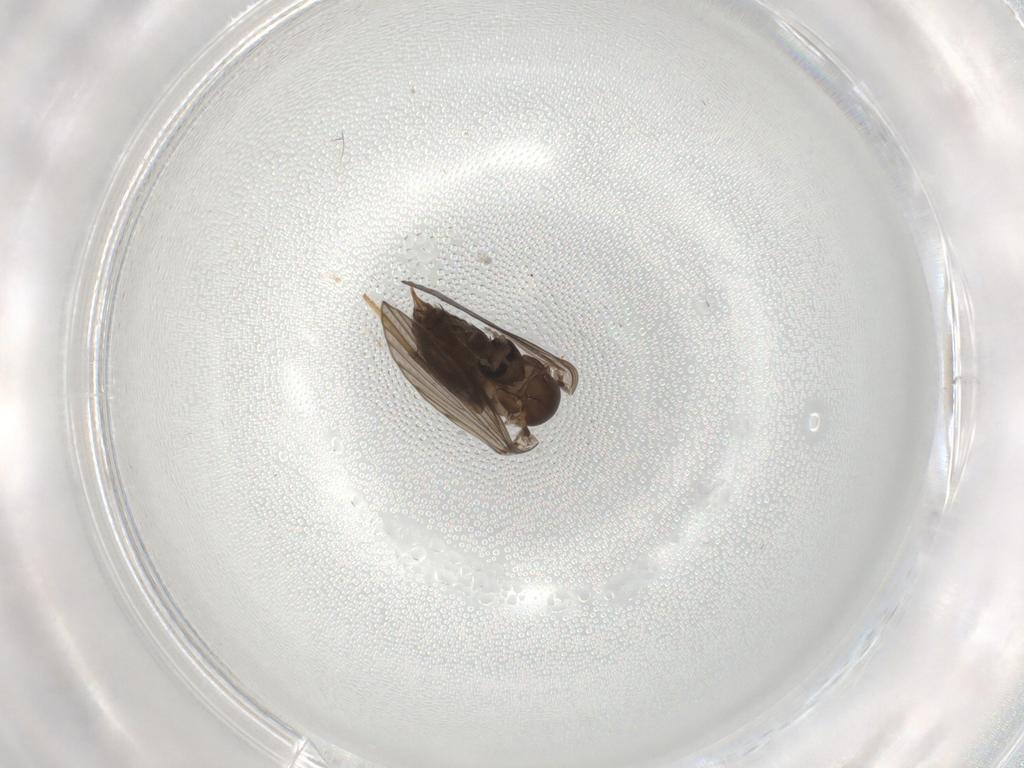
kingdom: Animalia
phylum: Arthropoda
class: Insecta
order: Diptera
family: Psychodidae
